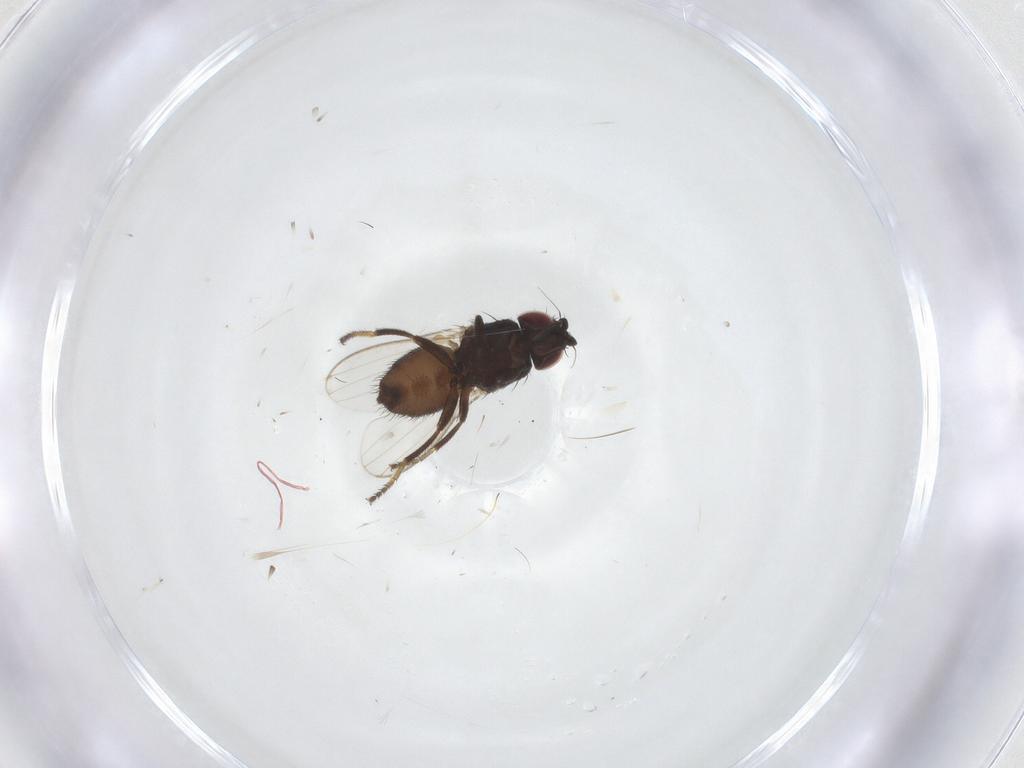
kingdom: Animalia
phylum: Arthropoda
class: Insecta
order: Diptera
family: Milichiidae
